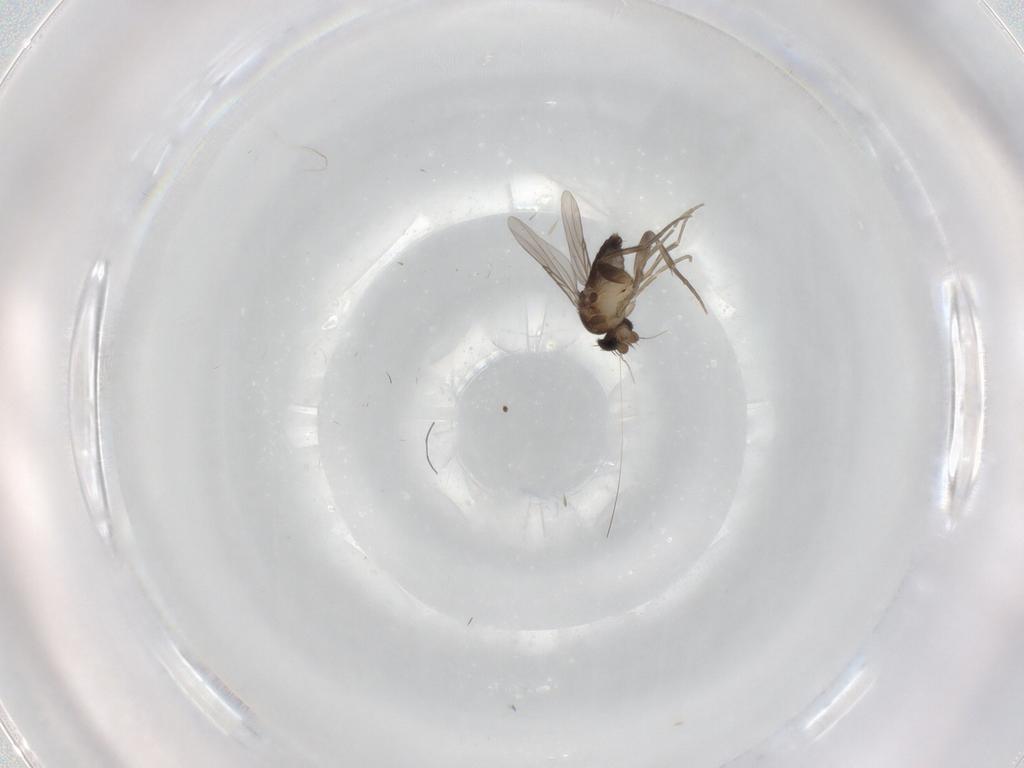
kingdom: Animalia
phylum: Arthropoda
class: Insecta
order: Diptera
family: Phoridae
